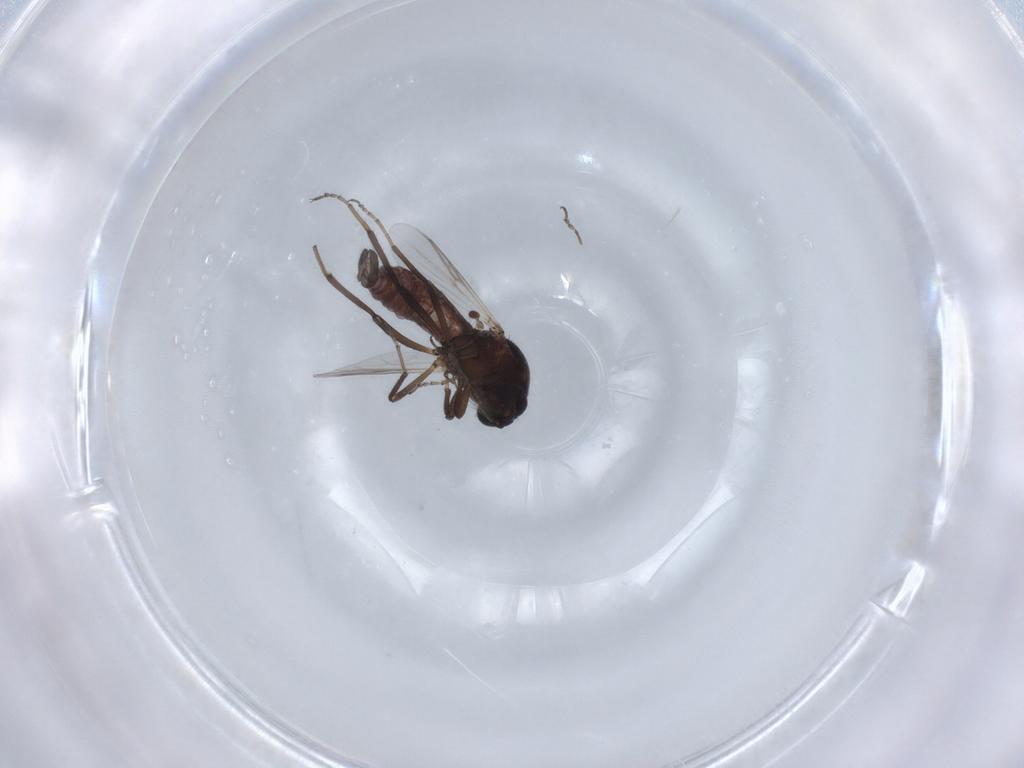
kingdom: Animalia
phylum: Arthropoda
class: Insecta
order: Diptera
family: Ceratopogonidae
